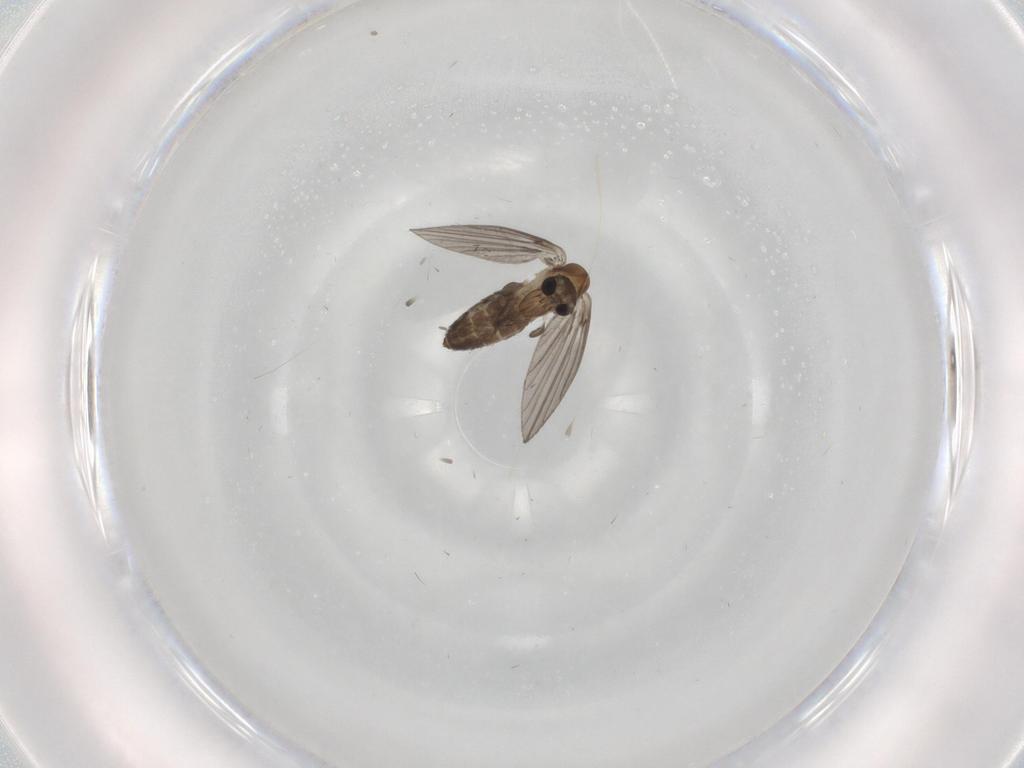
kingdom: Animalia
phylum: Arthropoda
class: Insecta
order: Diptera
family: Psychodidae
